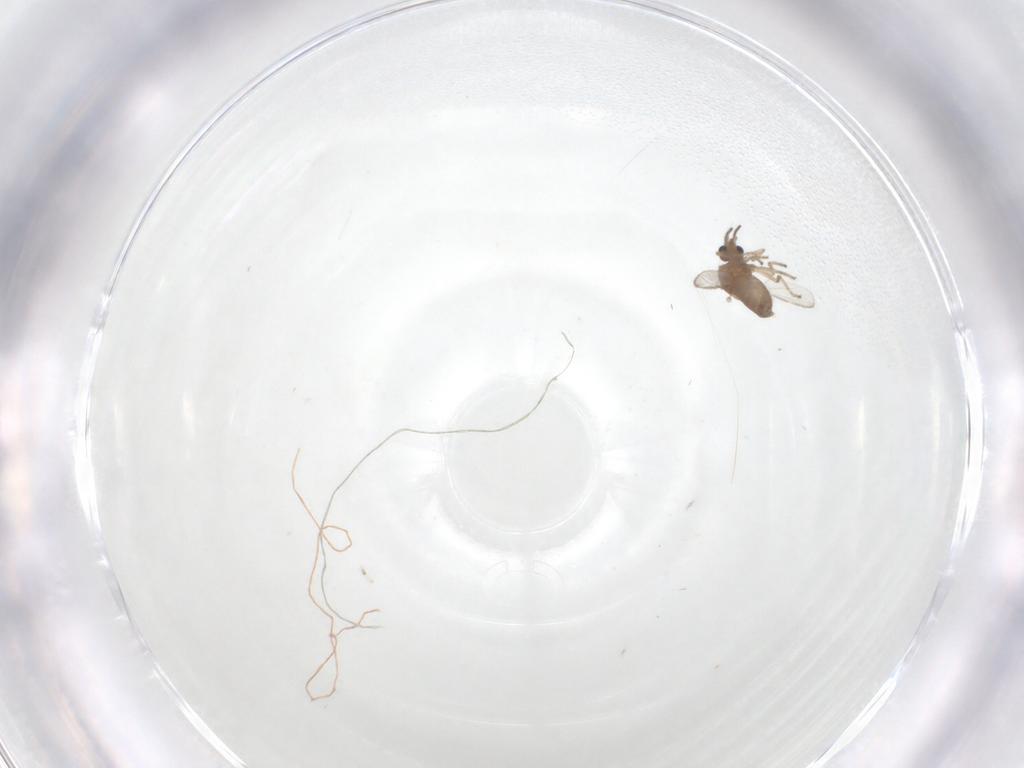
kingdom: Animalia
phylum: Arthropoda
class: Insecta
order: Diptera
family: Ceratopogonidae
